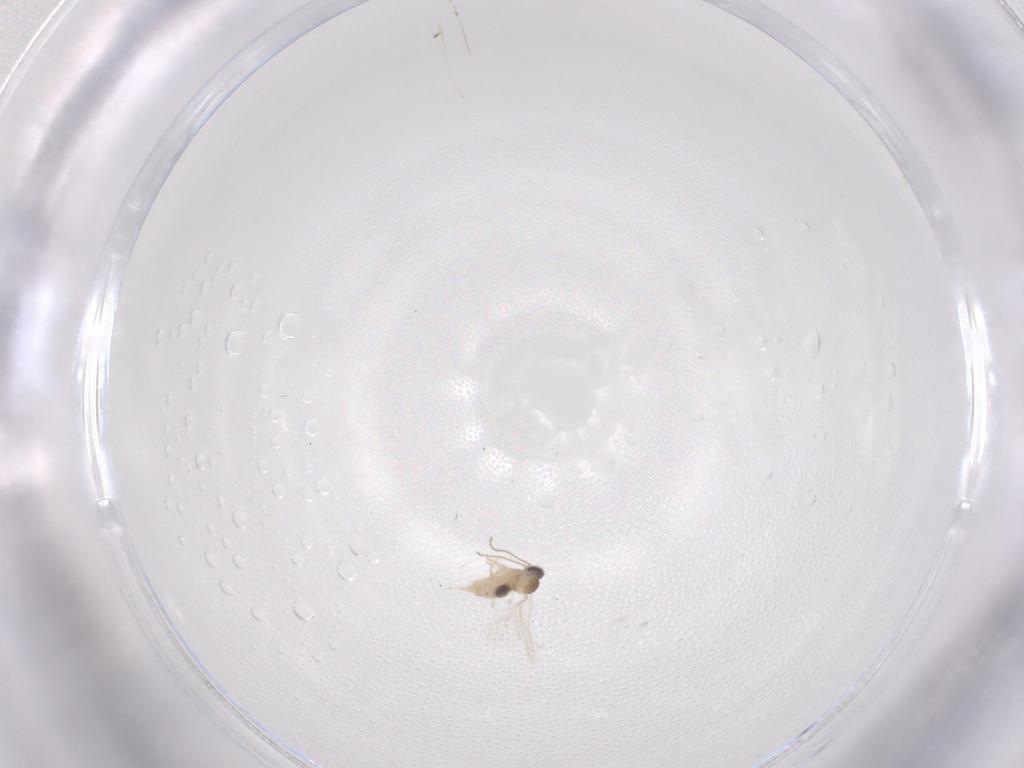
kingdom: Animalia
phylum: Arthropoda
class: Insecta
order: Diptera
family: Cecidomyiidae
